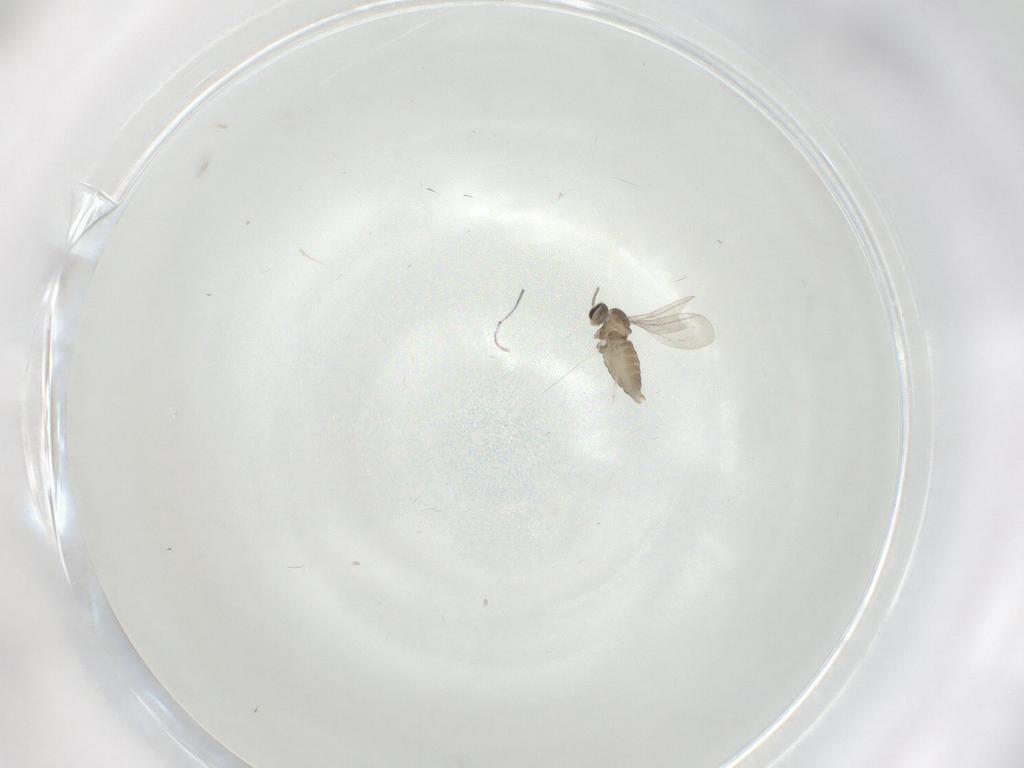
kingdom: Animalia
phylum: Arthropoda
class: Insecta
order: Diptera
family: Cecidomyiidae
